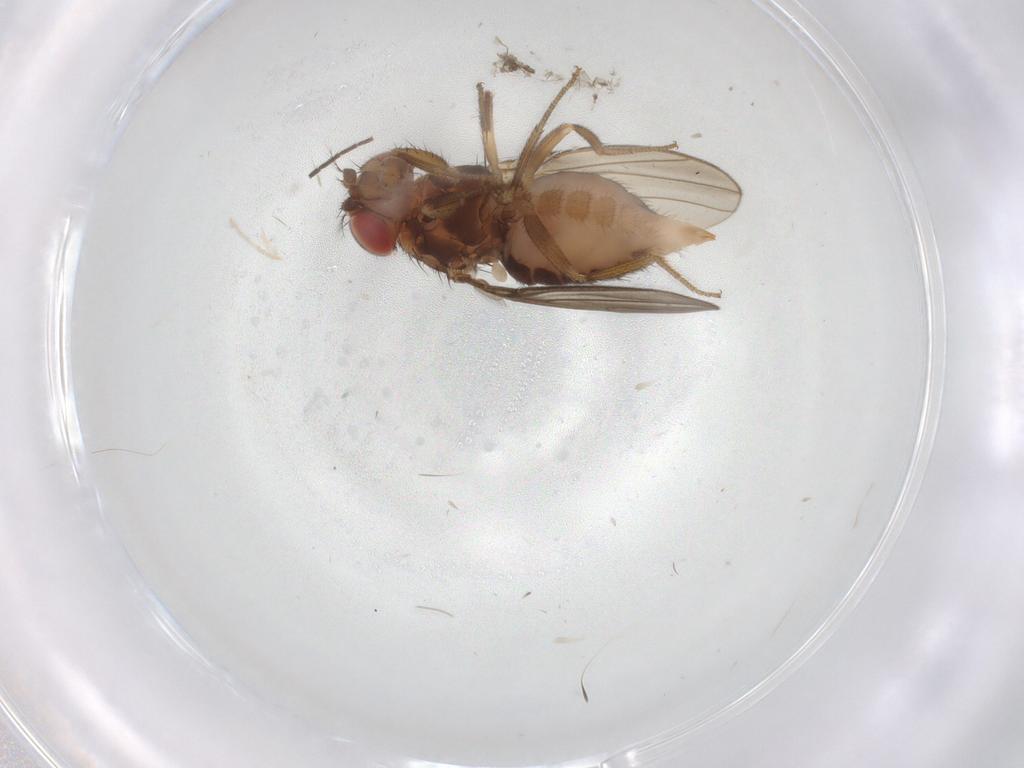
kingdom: Animalia
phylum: Arthropoda
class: Insecta
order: Diptera
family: Drosophilidae
